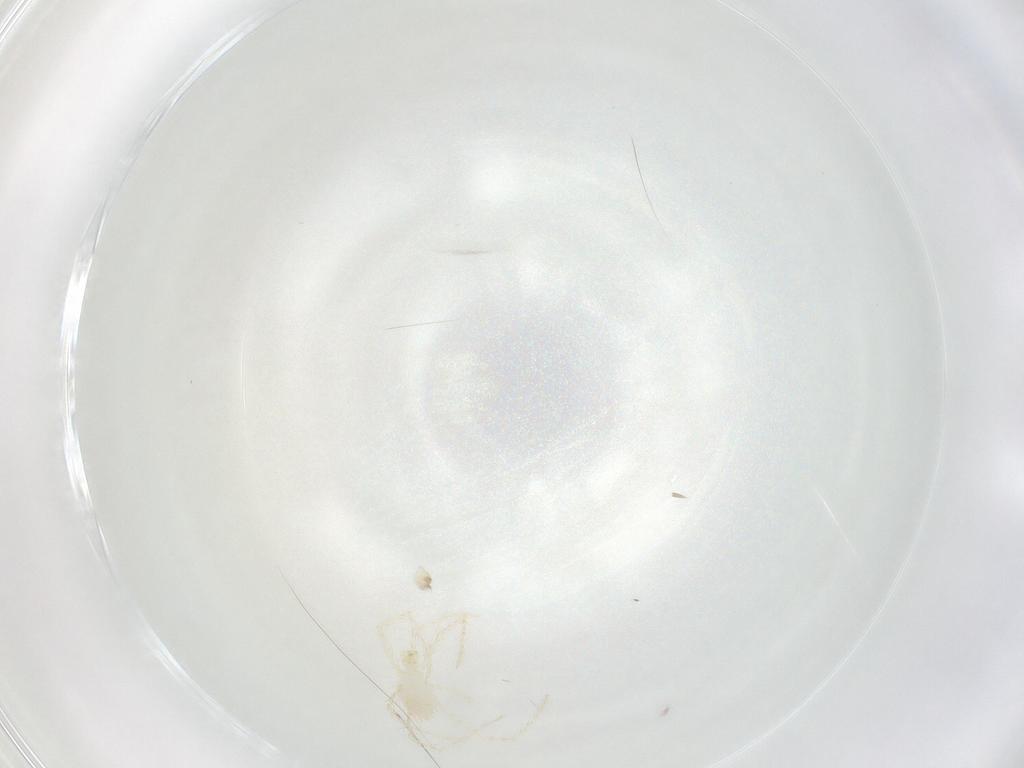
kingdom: Animalia
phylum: Arthropoda
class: Arachnida
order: Trombidiformes
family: Erythraeidae
